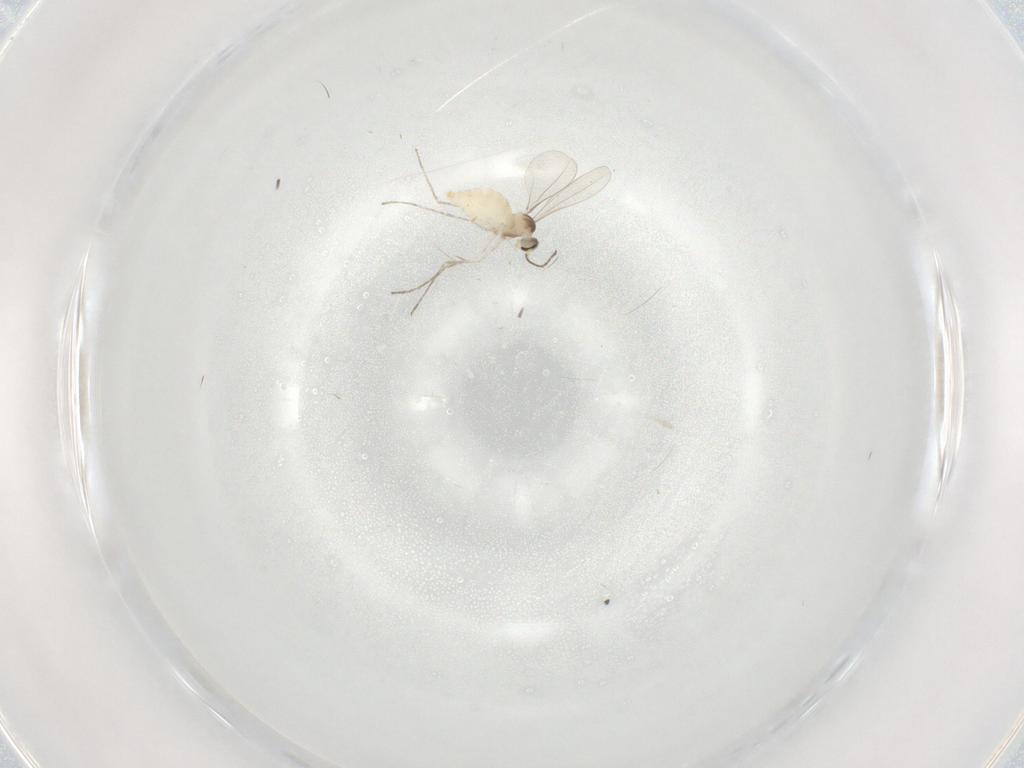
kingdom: Animalia
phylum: Arthropoda
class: Insecta
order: Diptera
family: Cecidomyiidae
